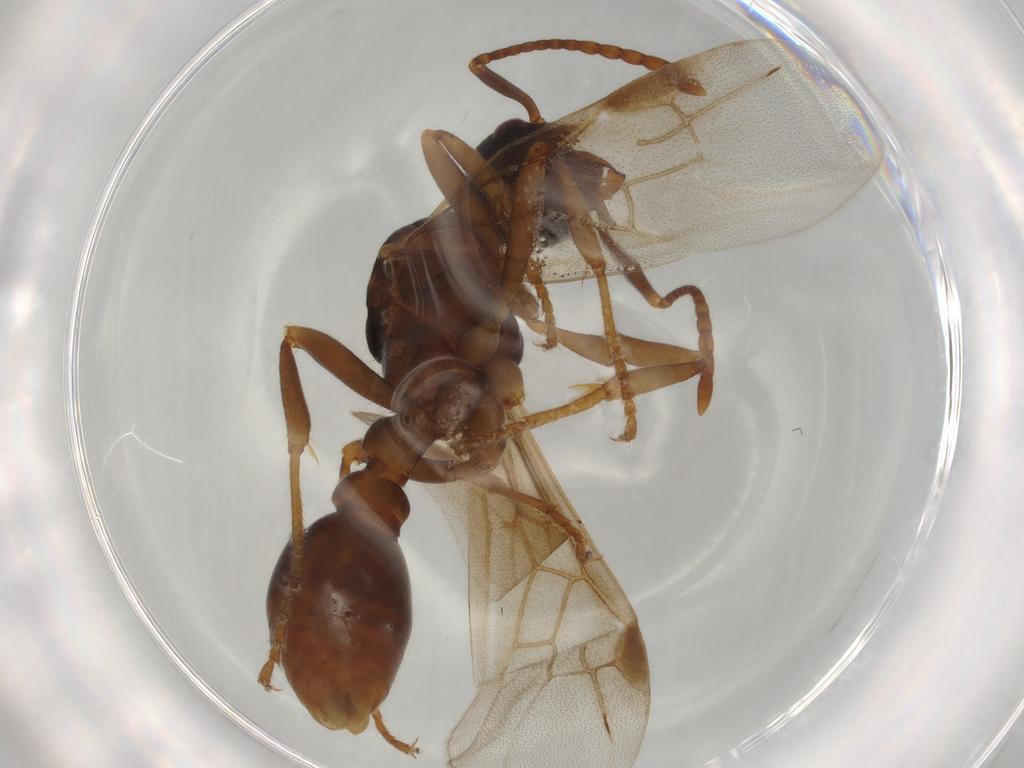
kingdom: Animalia
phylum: Arthropoda
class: Insecta
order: Hymenoptera
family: Formicidae
